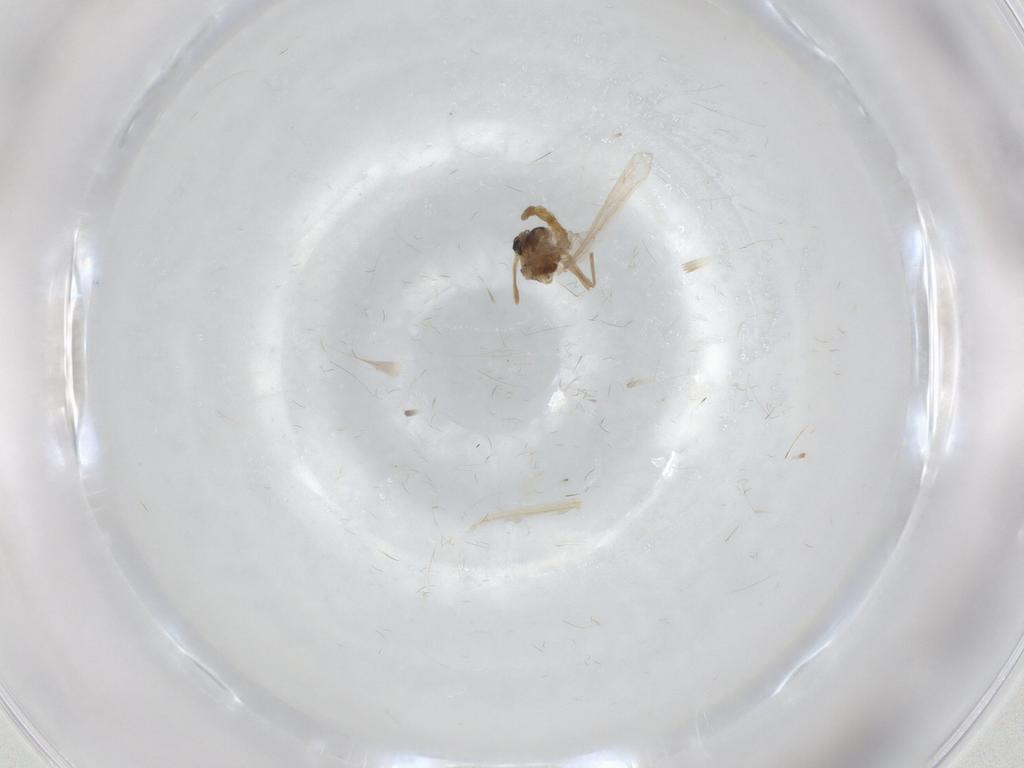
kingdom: Animalia
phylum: Arthropoda
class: Insecta
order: Diptera
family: Chironomidae
